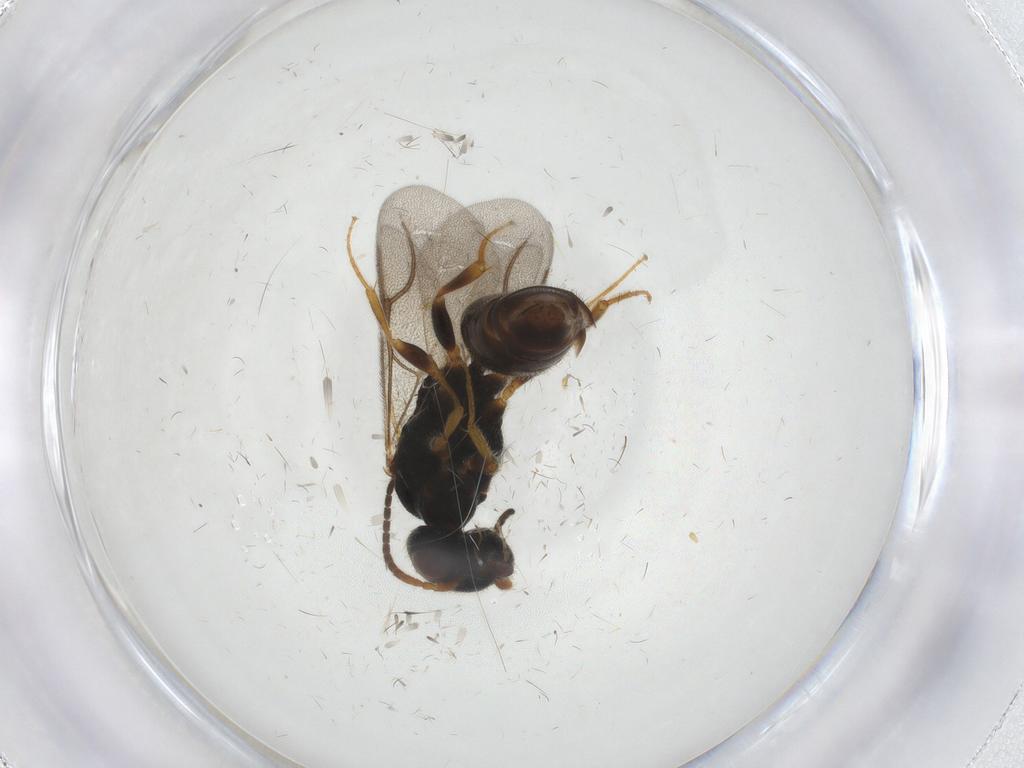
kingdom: Animalia
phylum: Arthropoda
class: Insecta
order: Hymenoptera
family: Bethylidae
